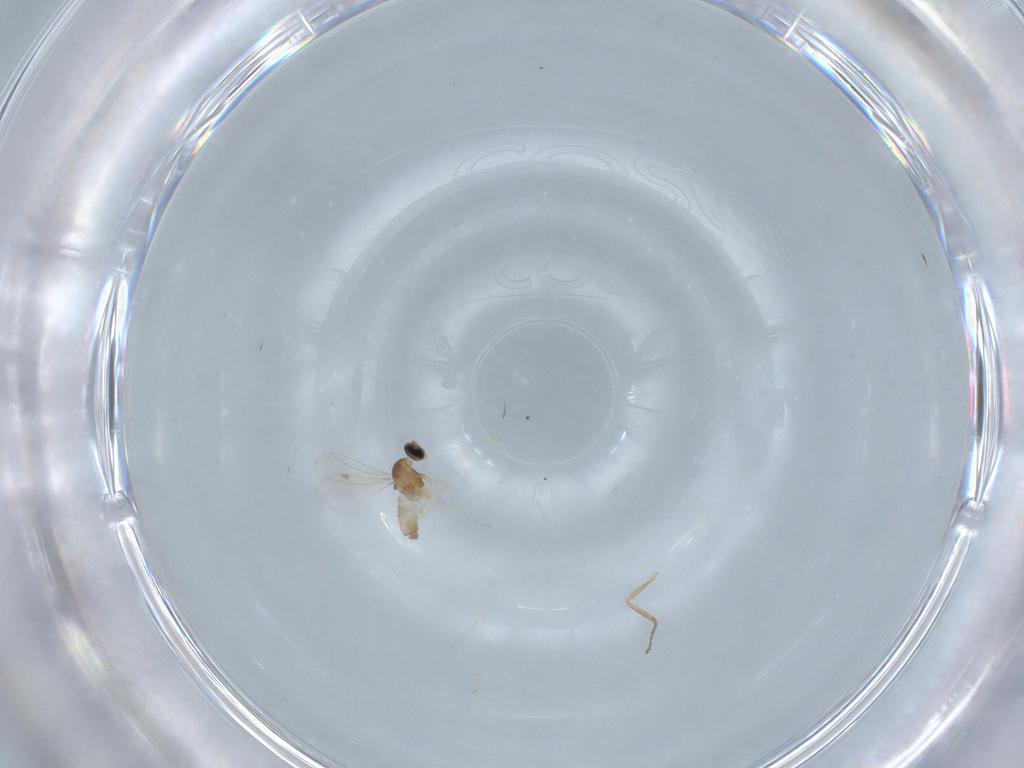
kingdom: Animalia
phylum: Arthropoda
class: Insecta
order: Diptera
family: Cecidomyiidae
